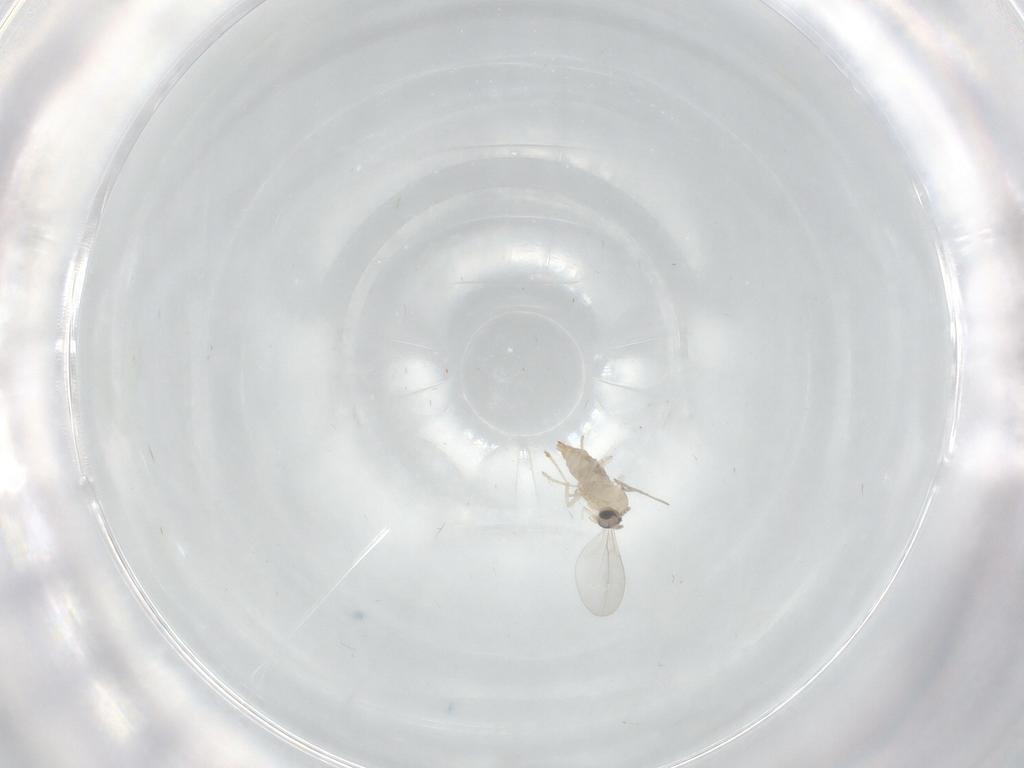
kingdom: Animalia
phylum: Arthropoda
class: Insecta
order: Diptera
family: Cecidomyiidae
